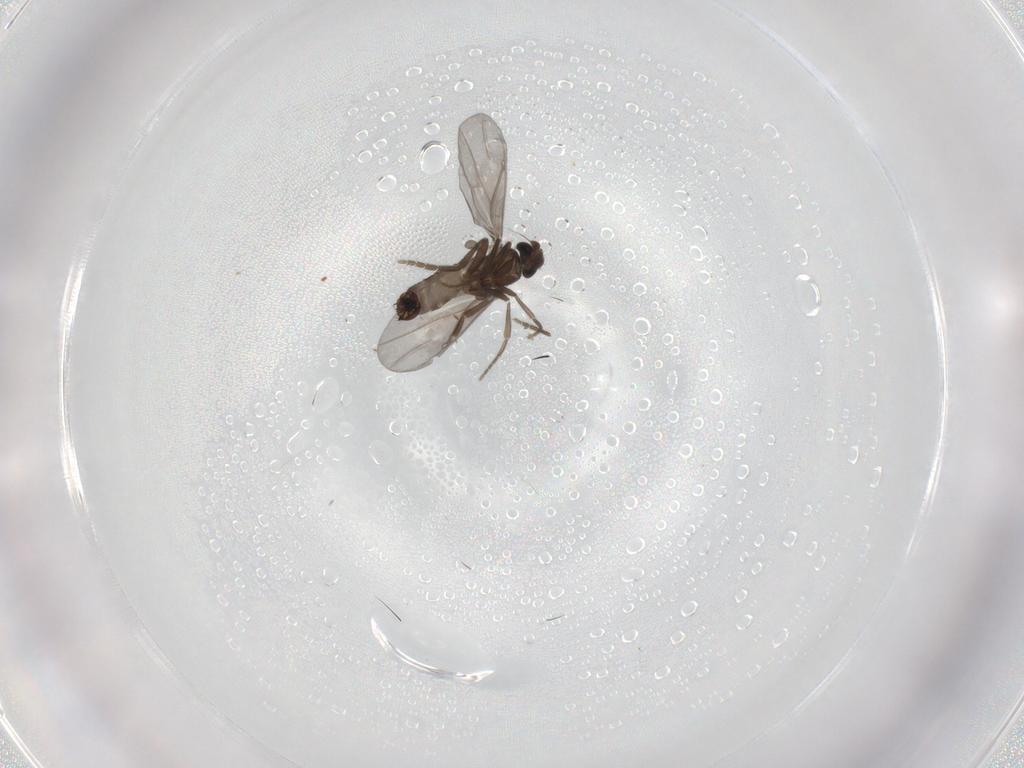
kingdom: Animalia
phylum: Arthropoda
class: Insecta
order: Diptera
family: Phoridae
